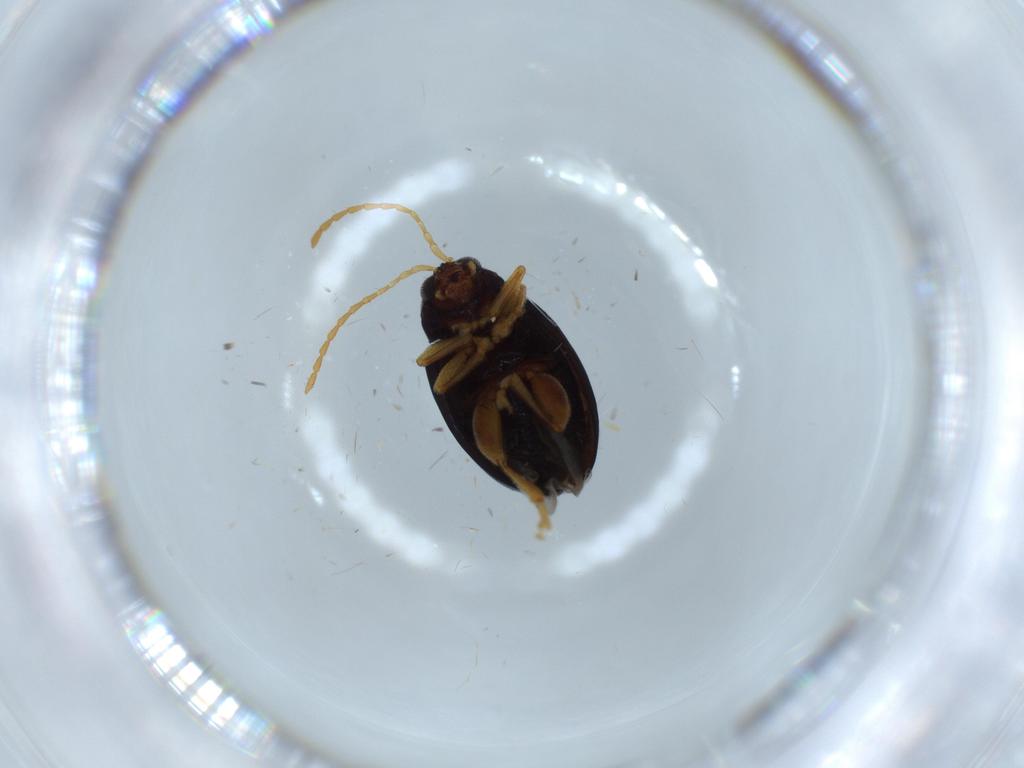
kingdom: Animalia
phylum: Arthropoda
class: Insecta
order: Coleoptera
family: Chrysomelidae
